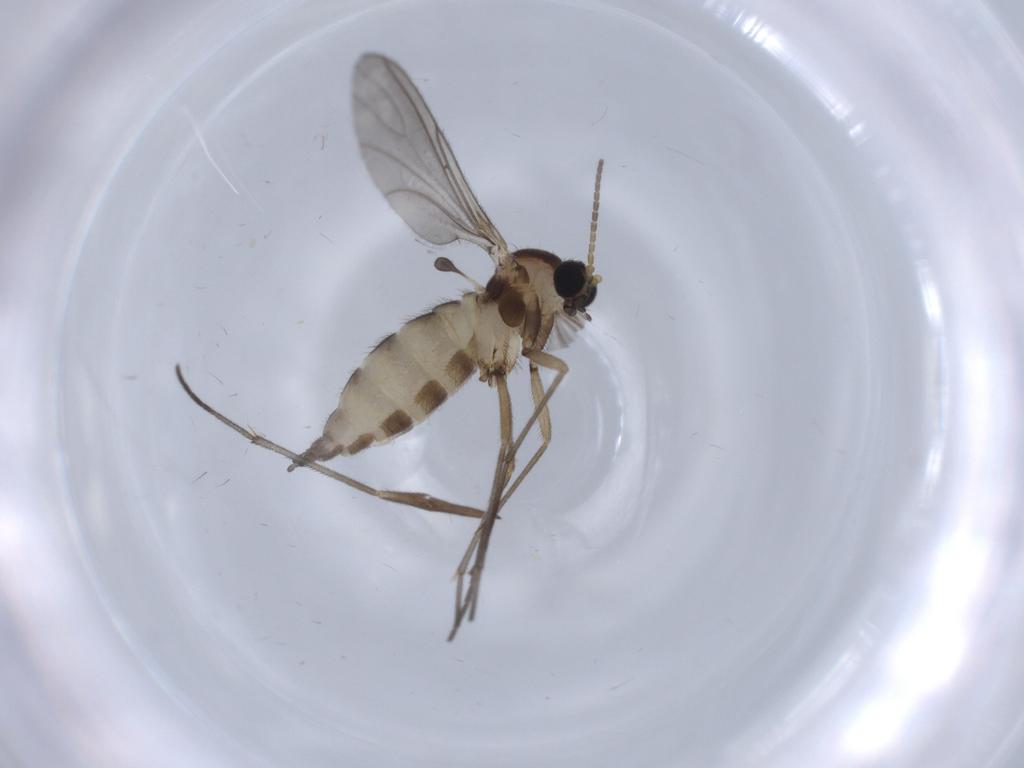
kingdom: Animalia
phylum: Arthropoda
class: Insecta
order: Diptera
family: Sciaridae
